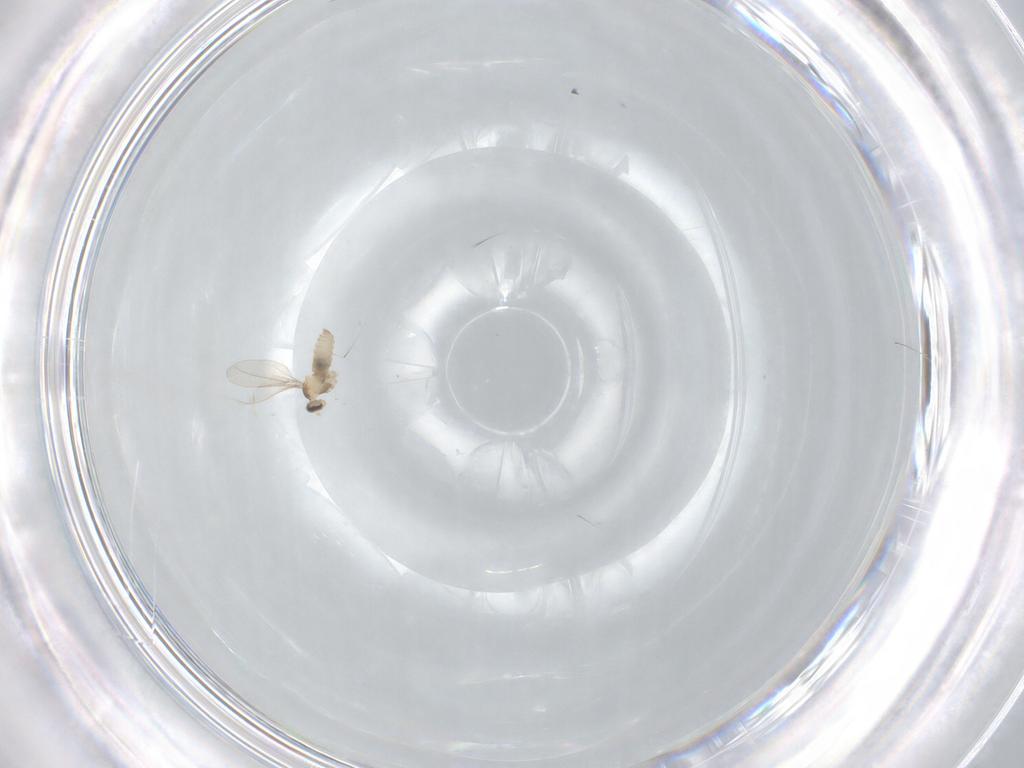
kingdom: Animalia
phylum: Arthropoda
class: Insecta
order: Diptera
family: Cecidomyiidae
